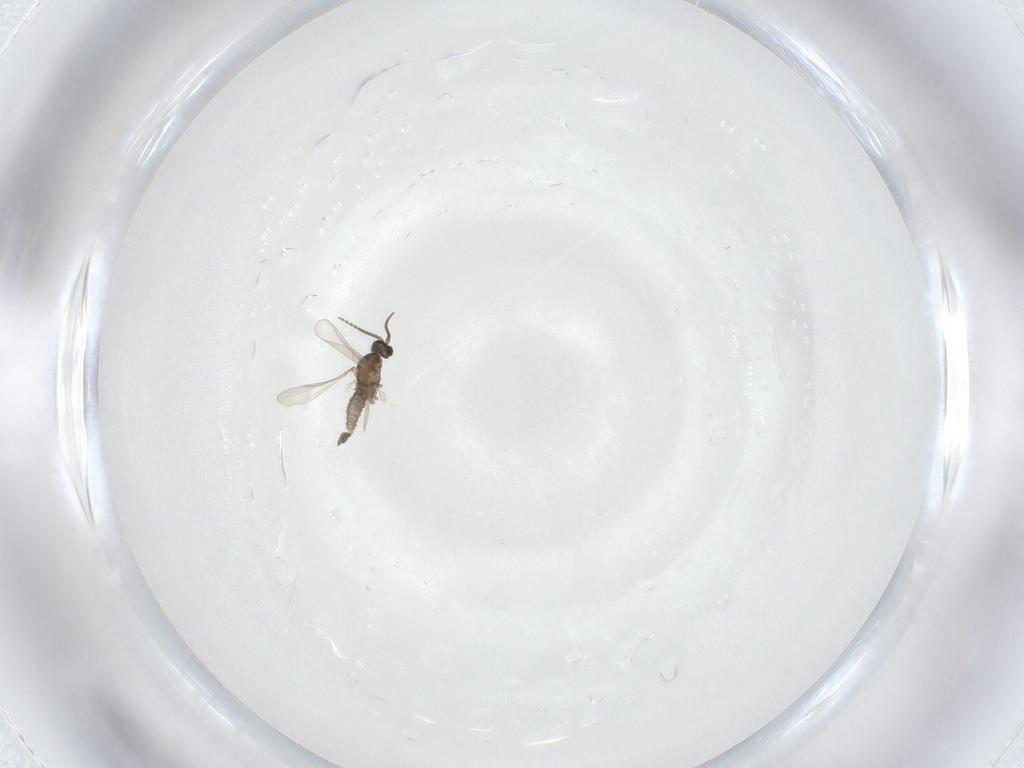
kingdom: Animalia
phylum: Arthropoda
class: Insecta
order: Diptera
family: Cecidomyiidae
